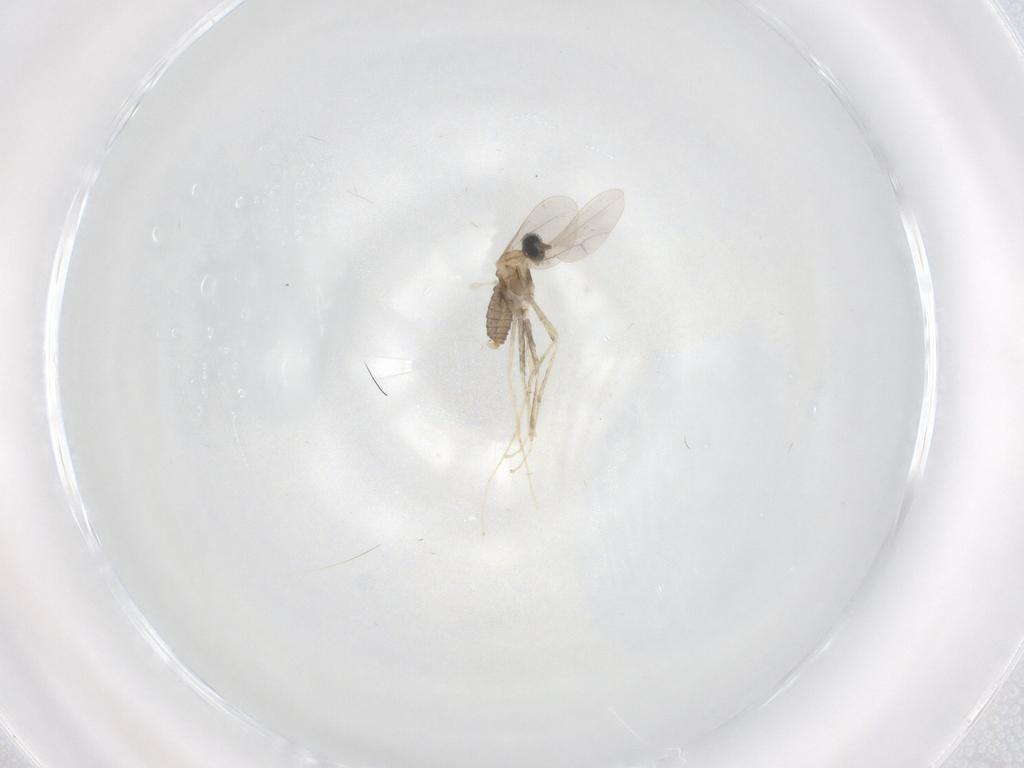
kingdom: Animalia
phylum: Arthropoda
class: Insecta
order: Diptera
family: Cecidomyiidae
